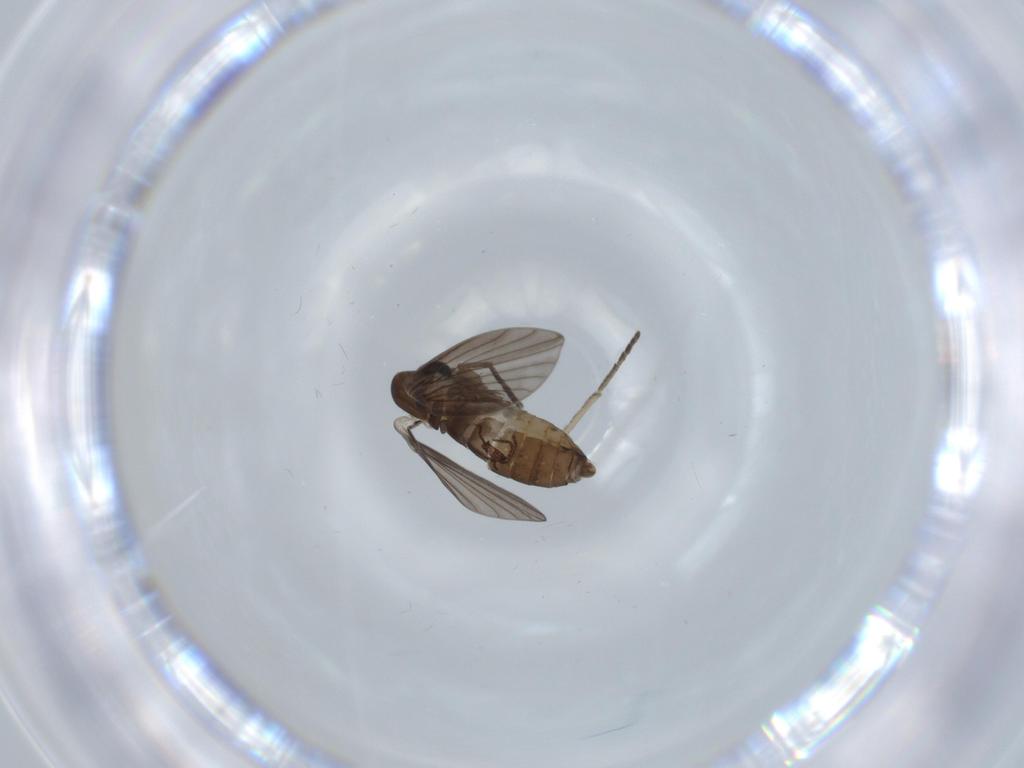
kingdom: Animalia
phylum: Arthropoda
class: Insecta
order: Diptera
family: Psychodidae
